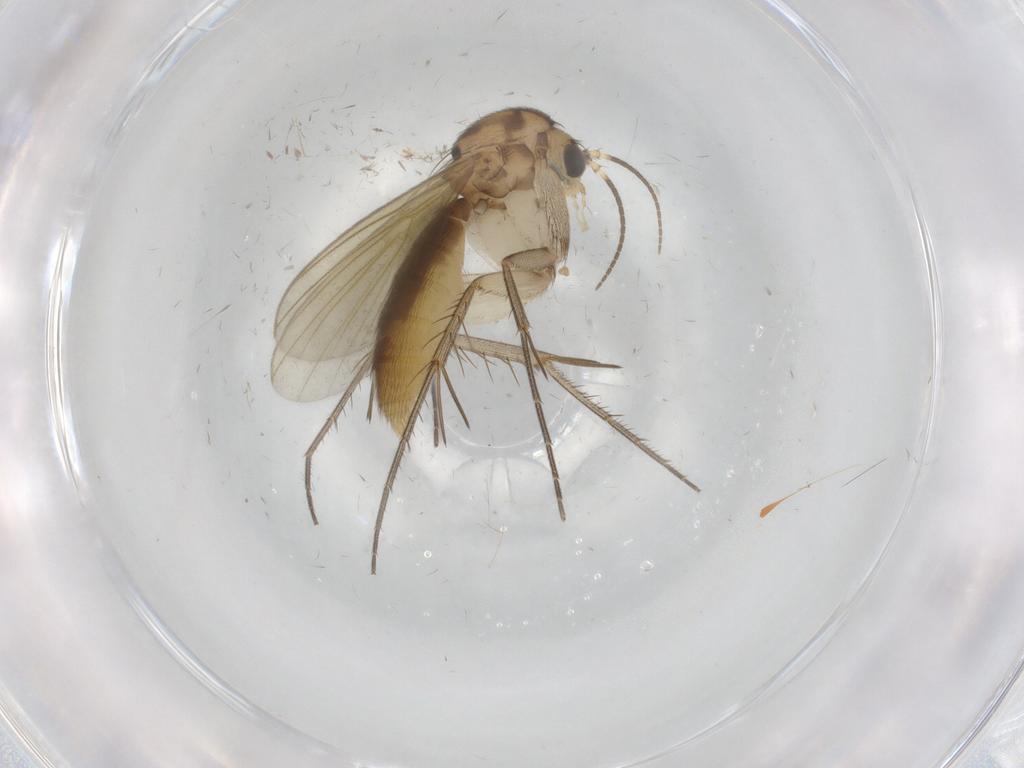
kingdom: Animalia
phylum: Arthropoda
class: Insecta
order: Diptera
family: Mycetophilidae
